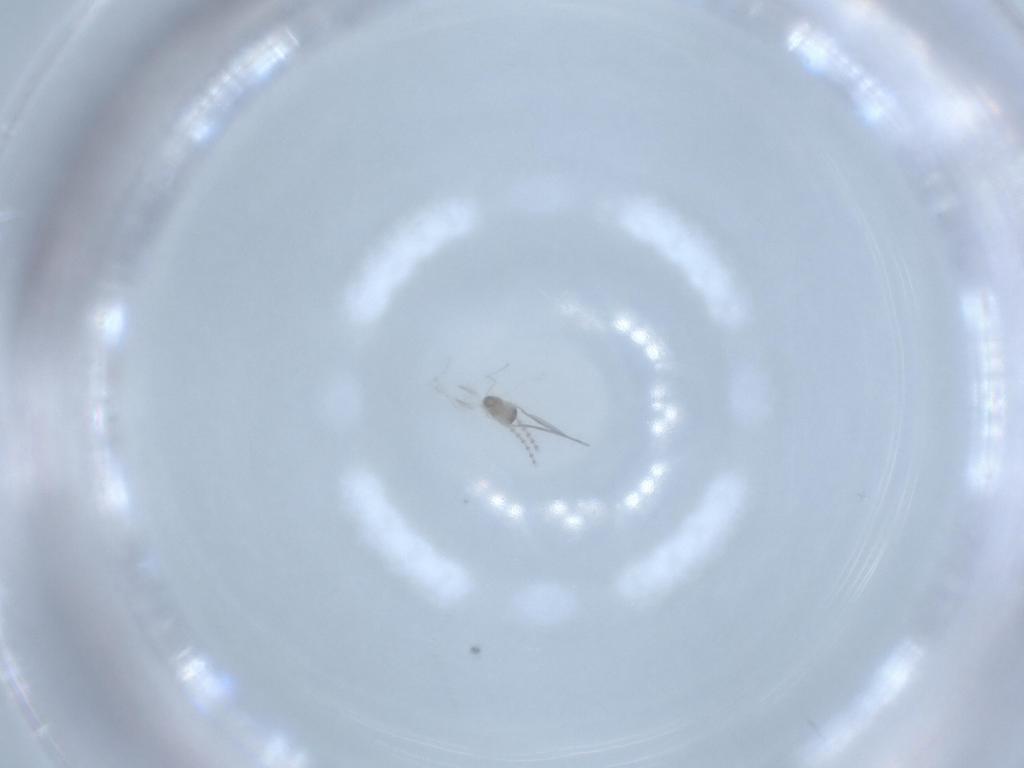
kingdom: Animalia
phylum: Arthropoda
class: Insecta
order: Diptera
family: Cecidomyiidae
